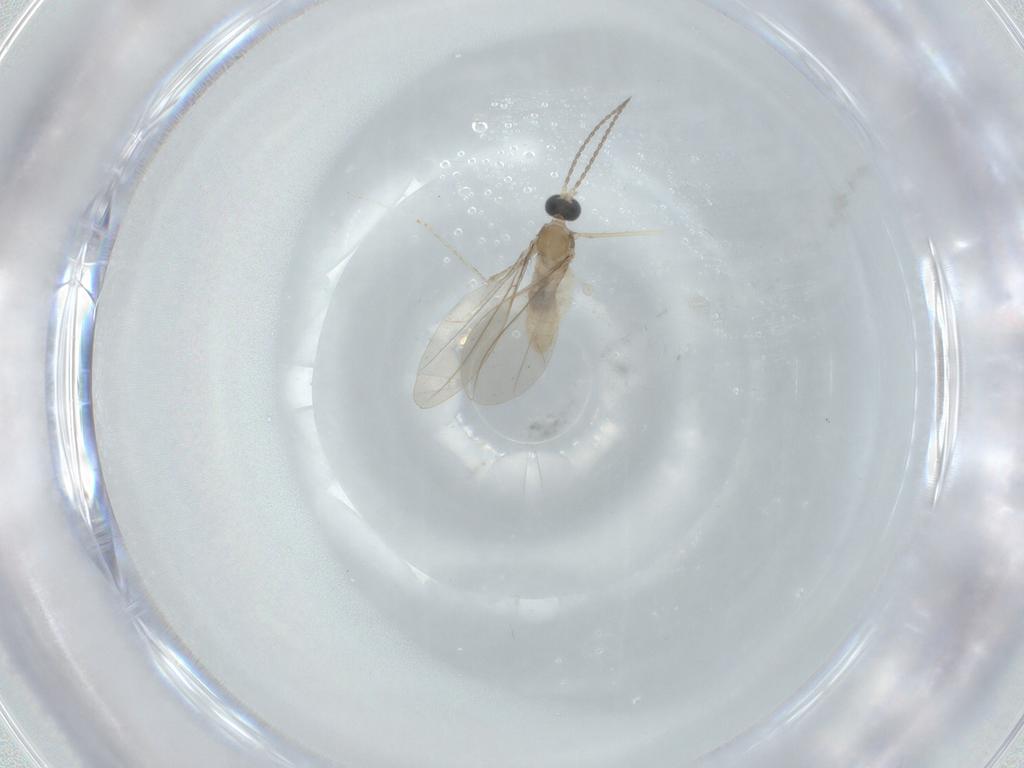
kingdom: Animalia
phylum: Arthropoda
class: Insecta
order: Diptera
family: Cecidomyiidae
